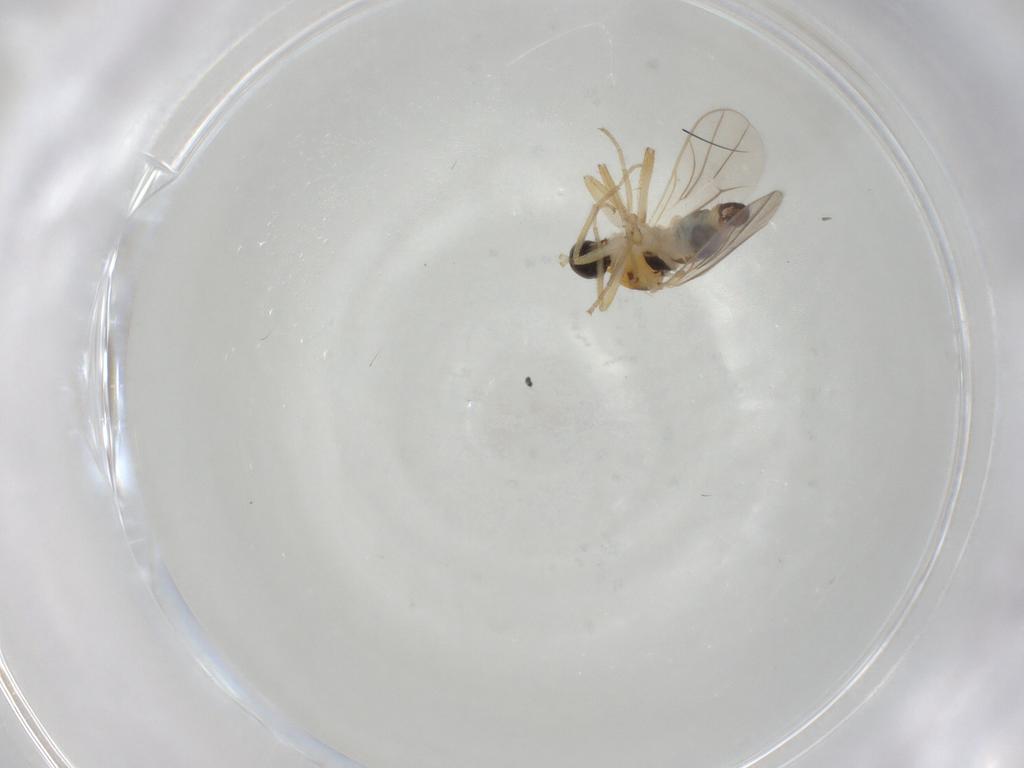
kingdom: Animalia
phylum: Arthropoda
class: Insecta
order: Diptera
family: Hybotidae
